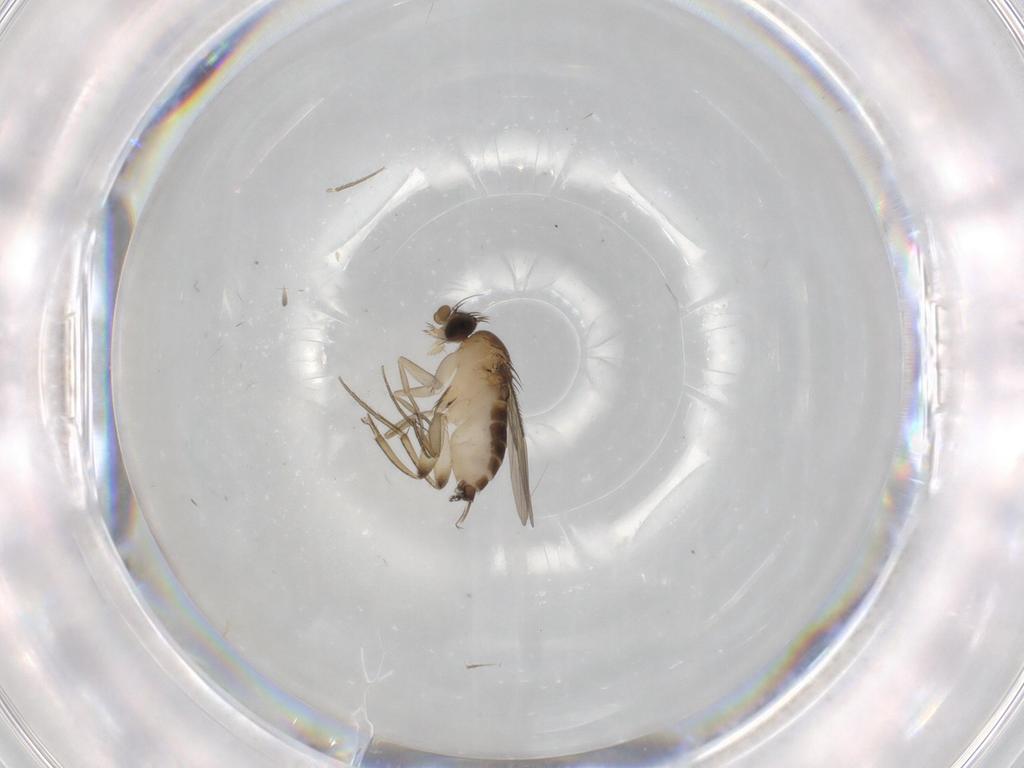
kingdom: Animalia
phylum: Arthropoda
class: Insecta
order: Diptera
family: Phoridae
